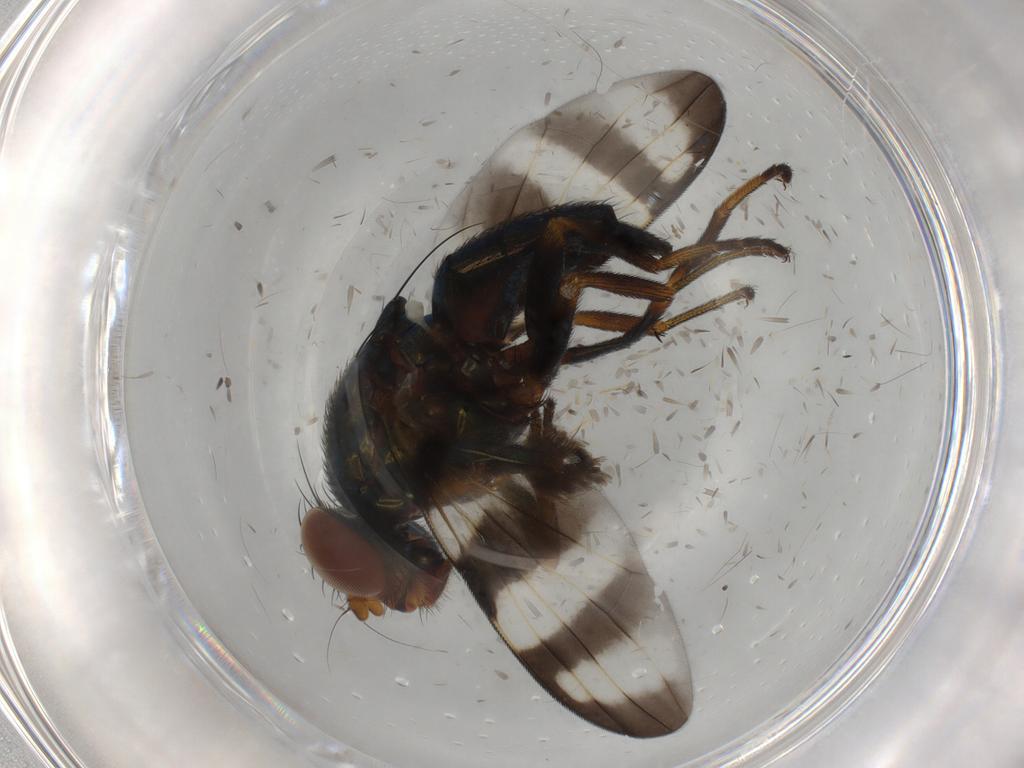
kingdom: Animalia
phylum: Arthropoda
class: Insecta
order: Diptera
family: Ulidiidae
